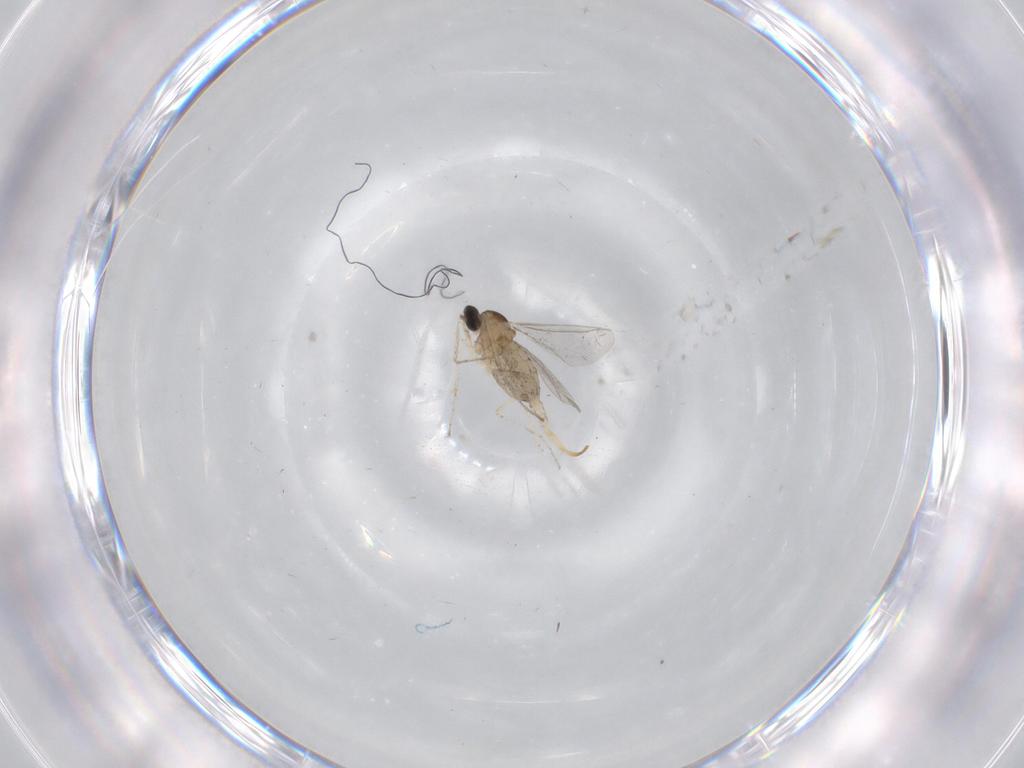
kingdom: Animalia
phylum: Arthropoda
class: Insecta
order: Diptera
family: Cecidomyiidae
